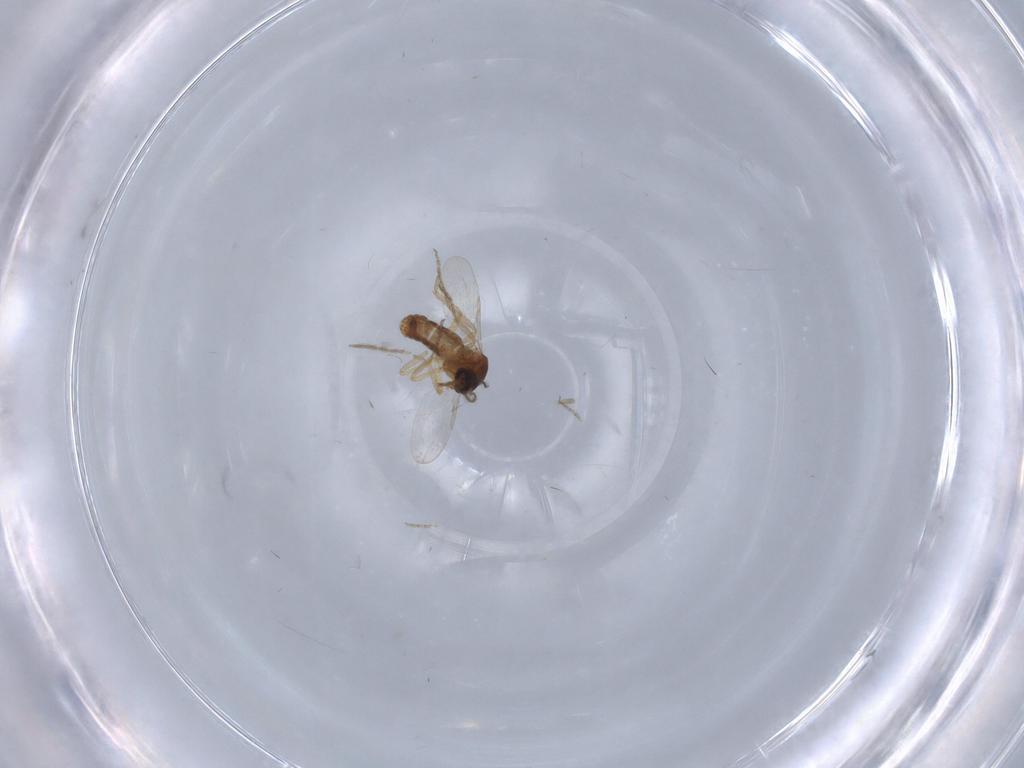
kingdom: Animalia
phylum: Arthropoda
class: Insecta
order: Diptera
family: Ceratopogonidae
